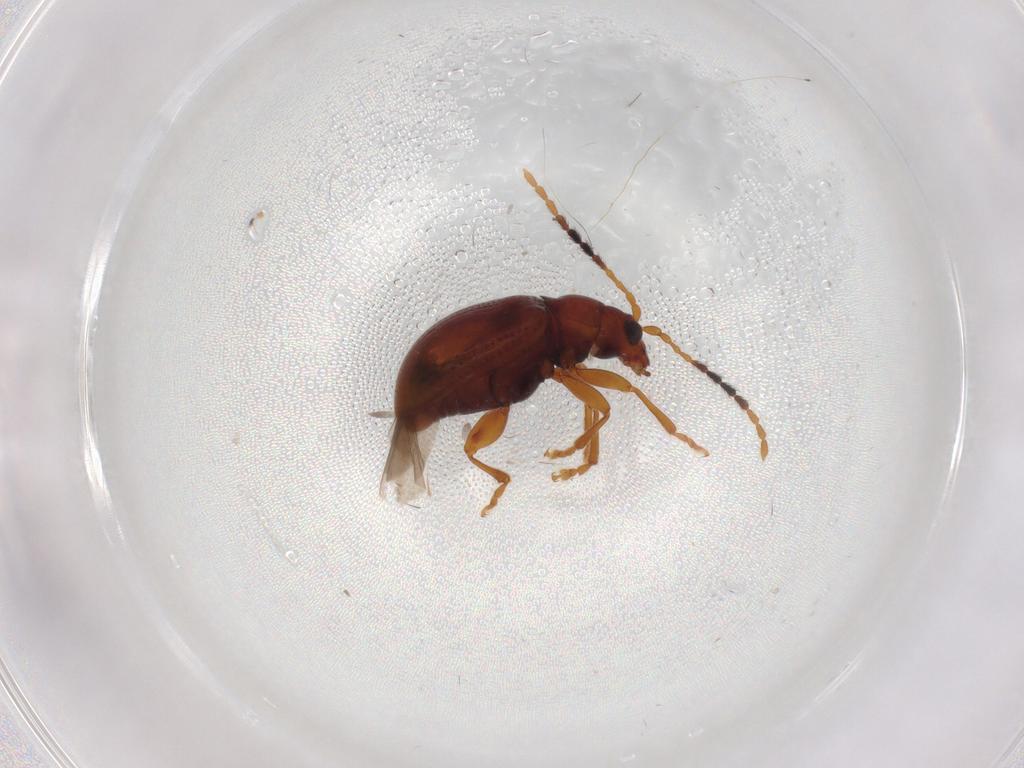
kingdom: Animalia
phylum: Arthropoda
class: Insecta
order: Coleoptera
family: Chrysomelidae
